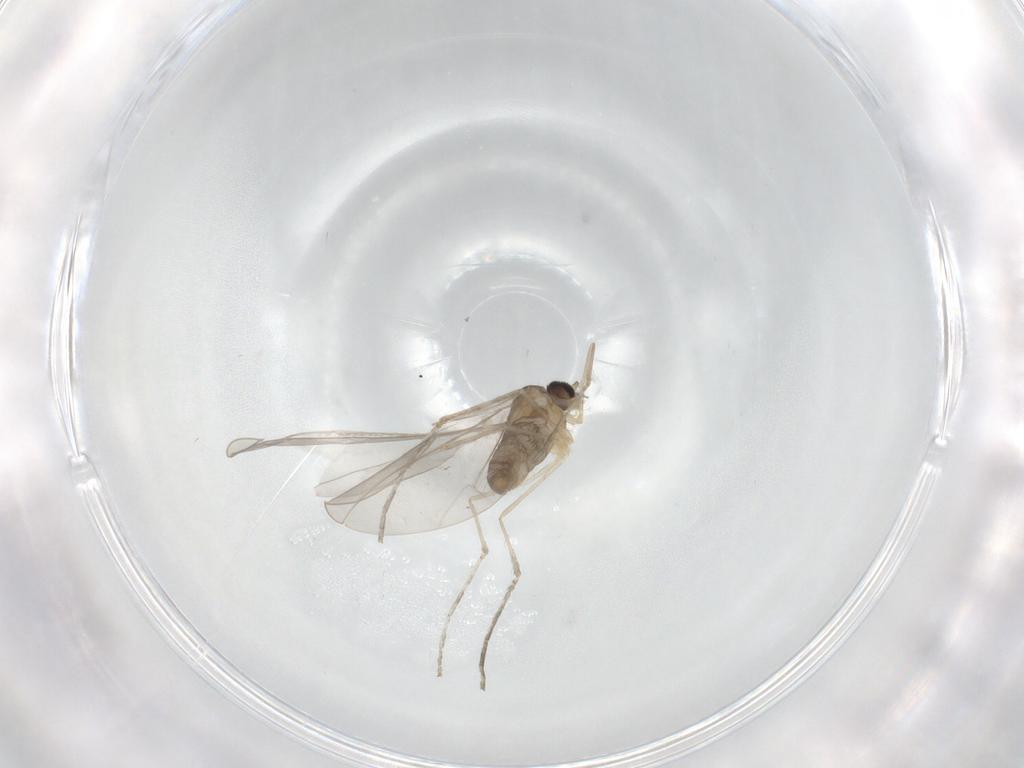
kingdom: Animalia
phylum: Arthropoda
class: Insecta
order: Diptera
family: Cecidomyiidae
